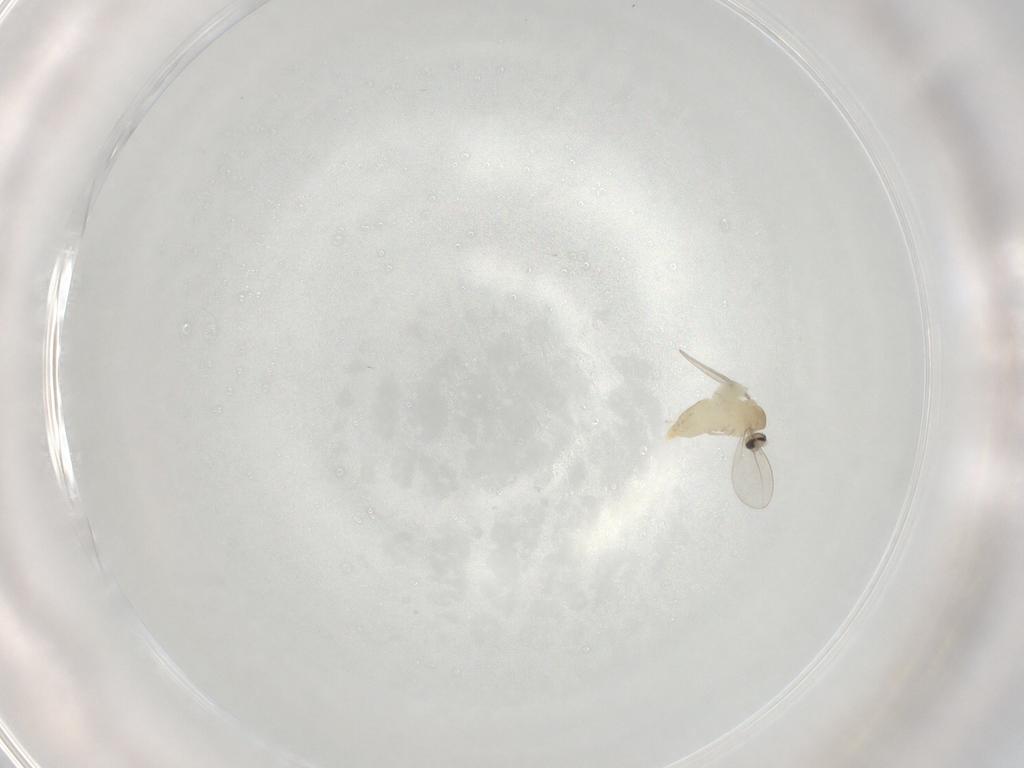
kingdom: Animalia
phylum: Arthropoda
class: Insecta
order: Diptera
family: Cecidomyiidae
